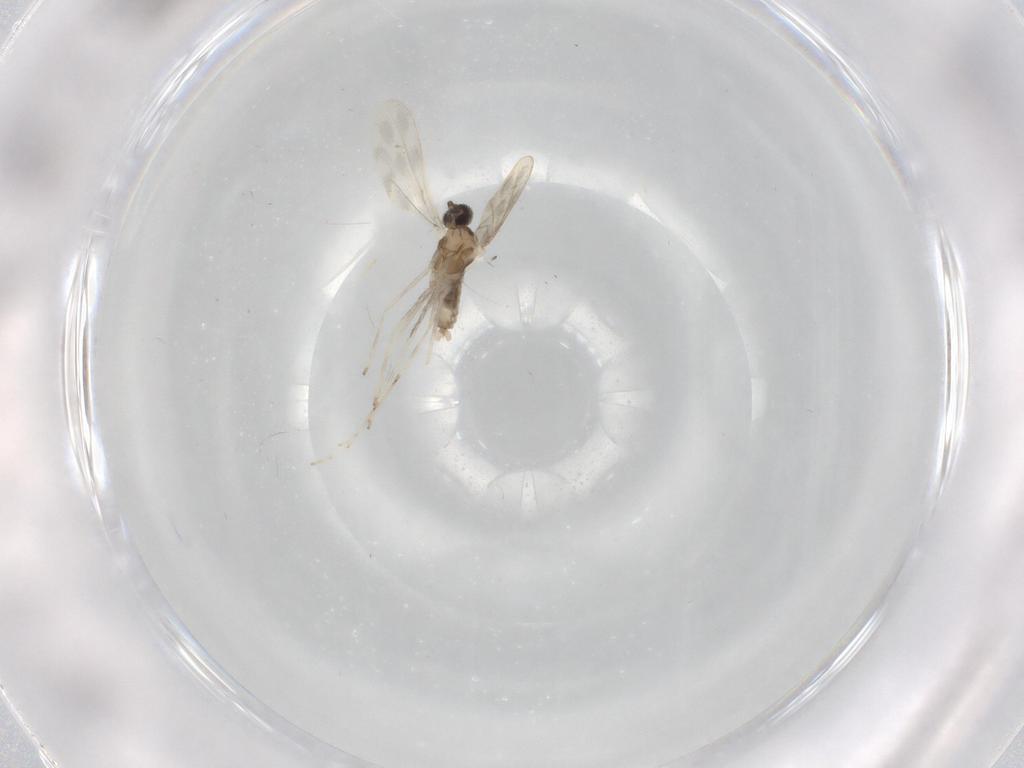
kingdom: Animalia
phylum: Arthropoda
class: Insecta
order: Diptera
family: Cecidomyiidae
